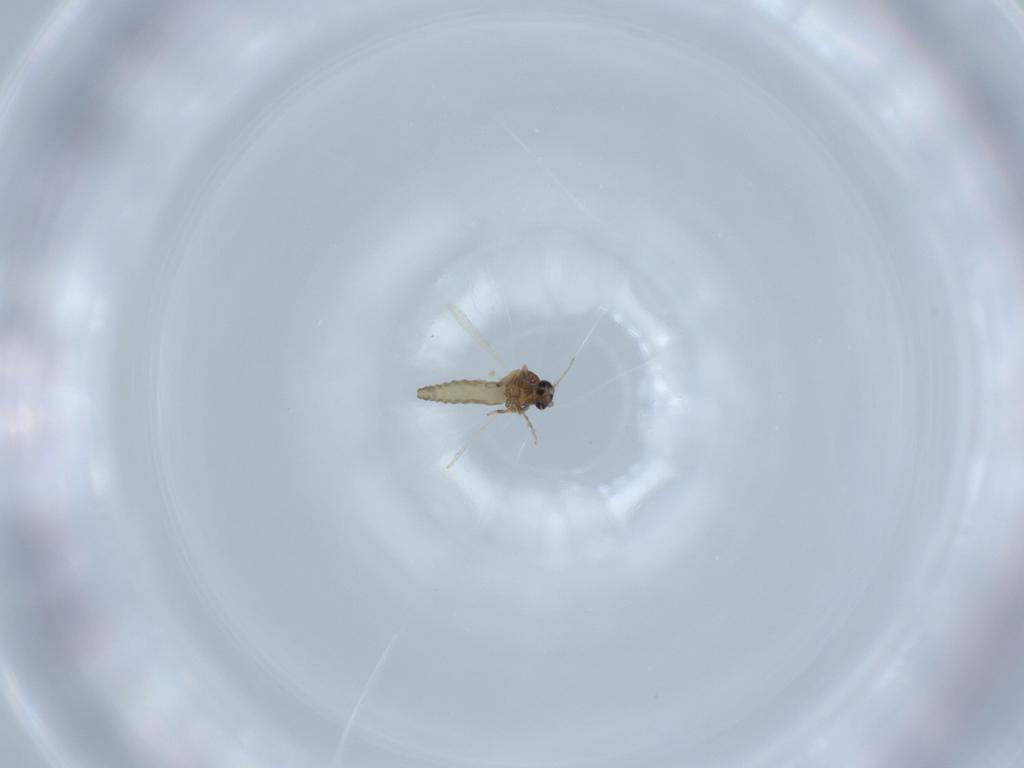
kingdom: Animalia
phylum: Arthropoda
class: Insecta
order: Diptera
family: Ceratopogonidae
